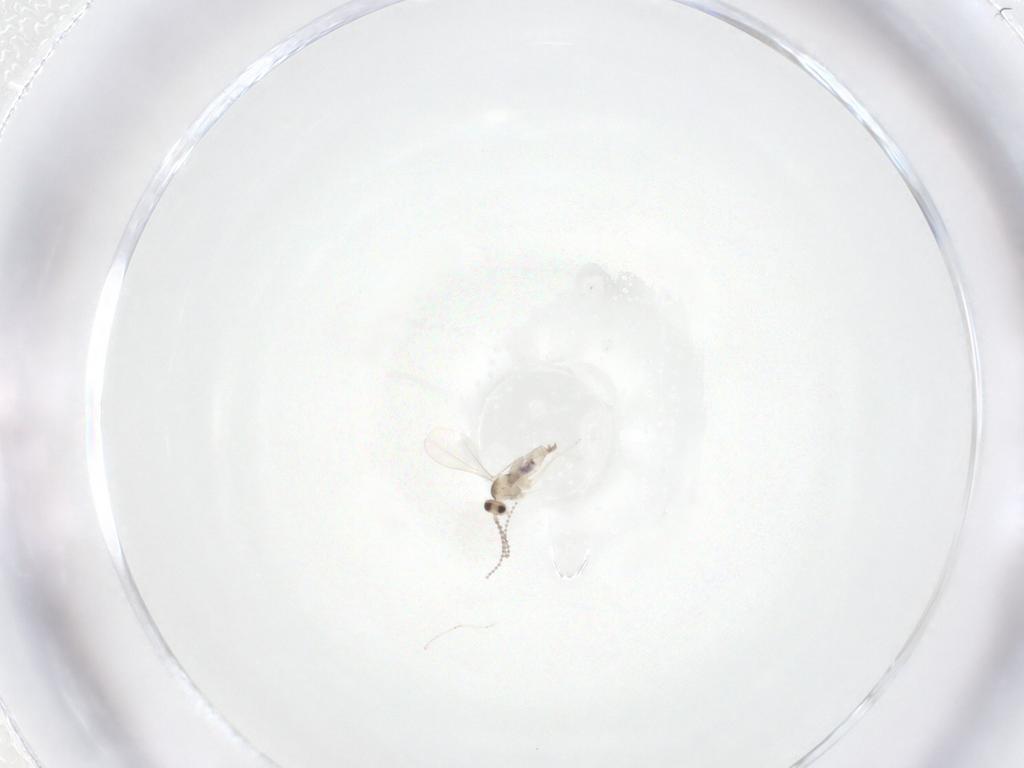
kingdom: Animalia
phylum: Arthropoda
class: Insecta
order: Diptera
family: Cecidomyiidae
